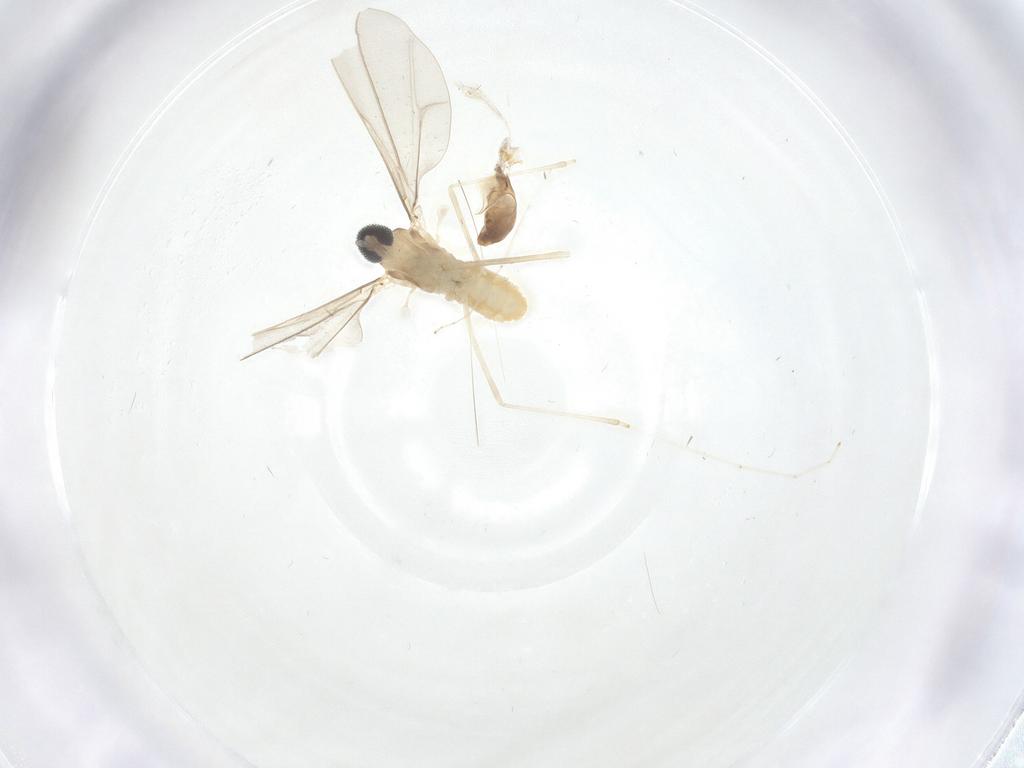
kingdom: Animalia
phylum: Arthropoda
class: Insecta
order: Diptera
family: Cecidomyiidae
